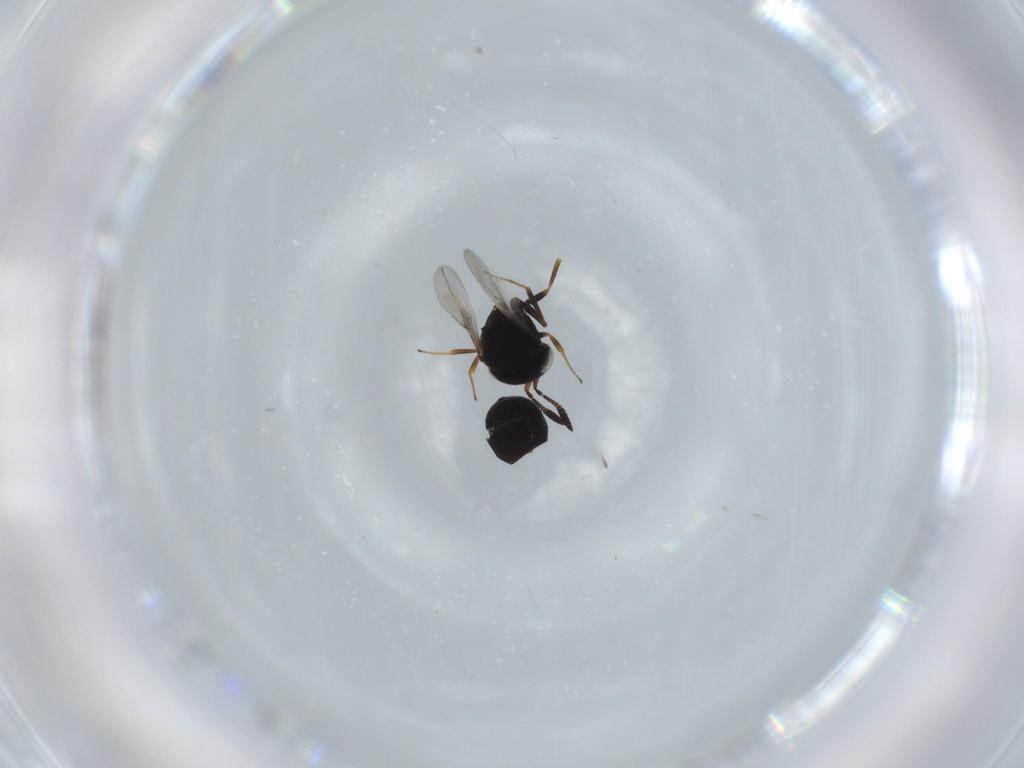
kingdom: Animalia
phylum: Arthropoda
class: Insecta
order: Hymenoptera
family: Scelionidae
